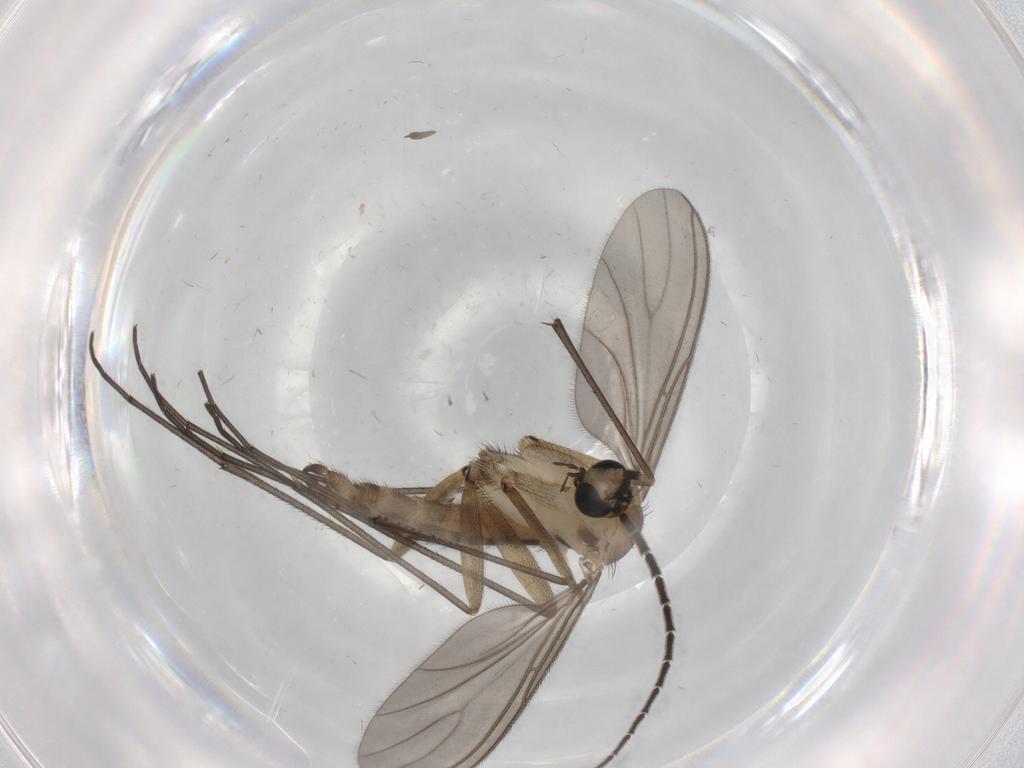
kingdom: Animalia
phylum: Arthropoda
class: Insecta
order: Diptera
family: Sciaridae
